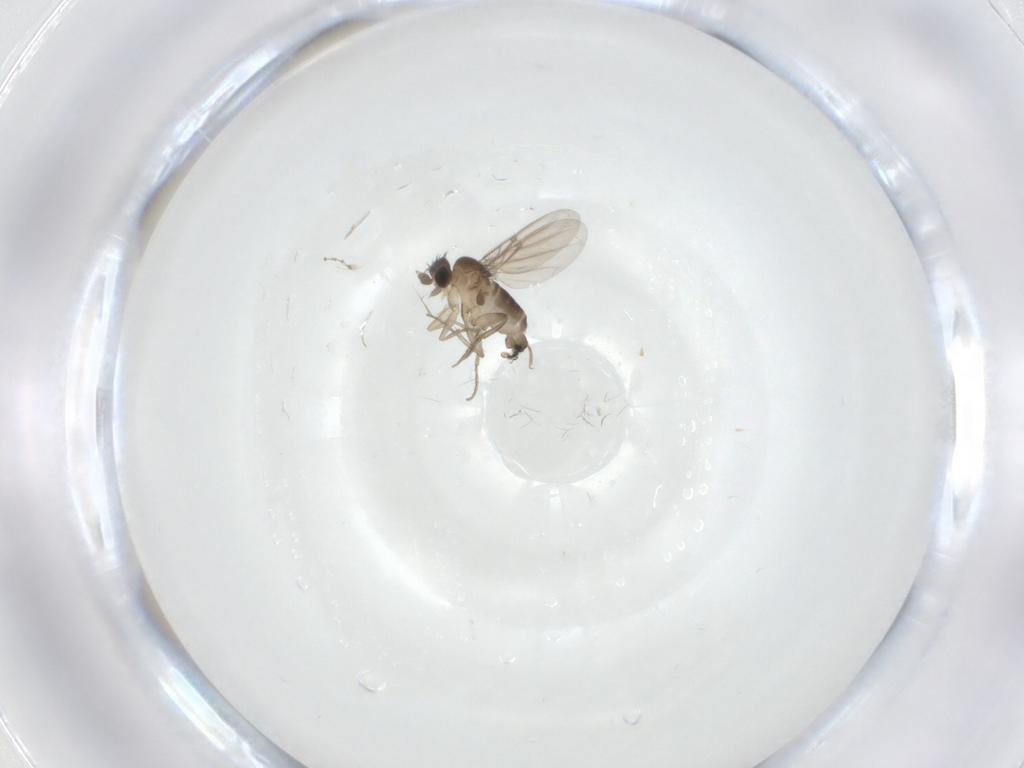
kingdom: Animalia
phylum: Arthropoda
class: Insecta
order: Diptera
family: Phoridae
